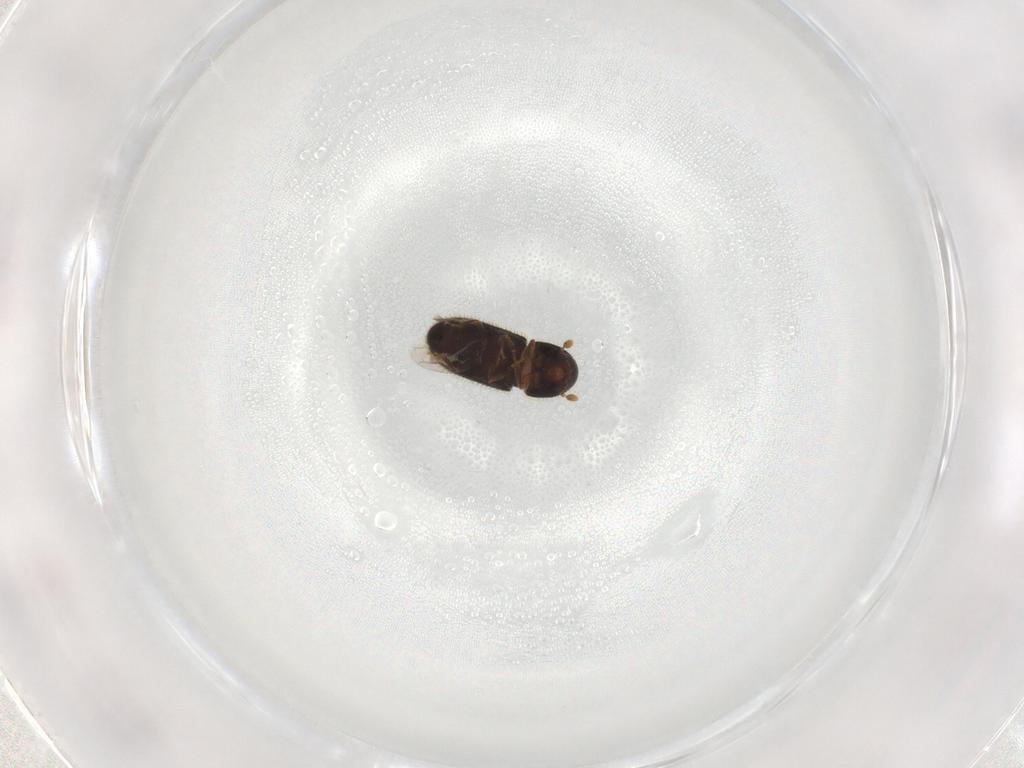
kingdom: Animalia
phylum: Arthropoda
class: Insecta
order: Coleoptera
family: Curculionidae
